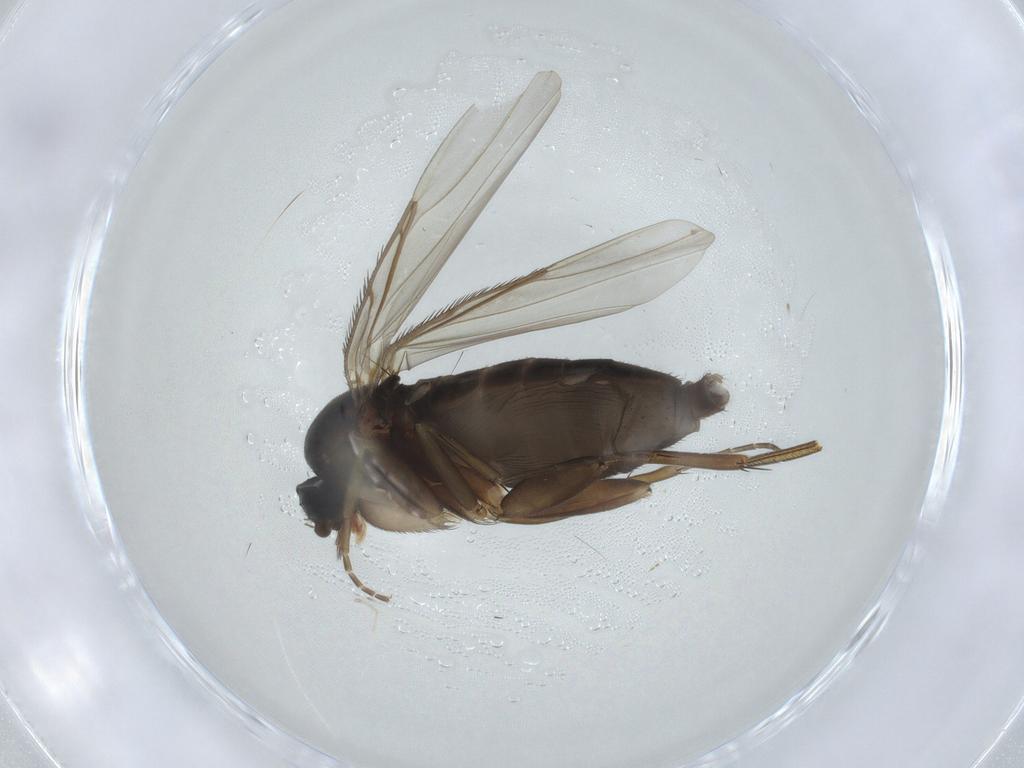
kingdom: Animalia
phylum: Arthropoda
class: Insecta
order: Diptera
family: Phoridae
